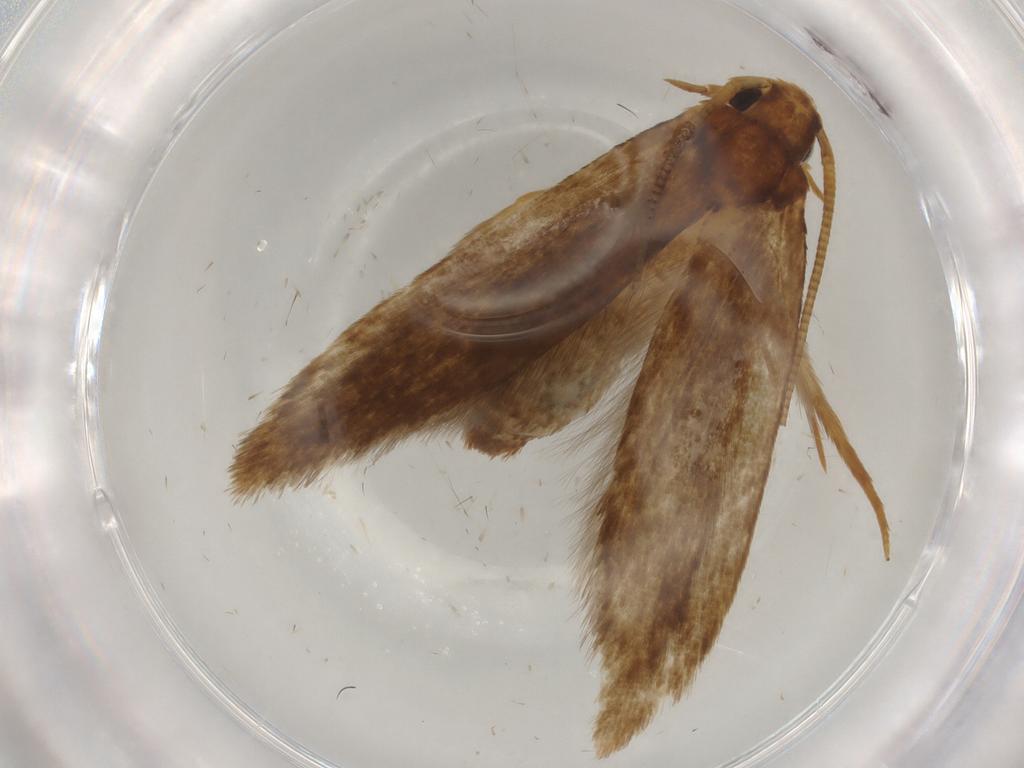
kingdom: Animalia
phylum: Arthropoda
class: Insecta
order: Lepidoptera
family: Tineidae
